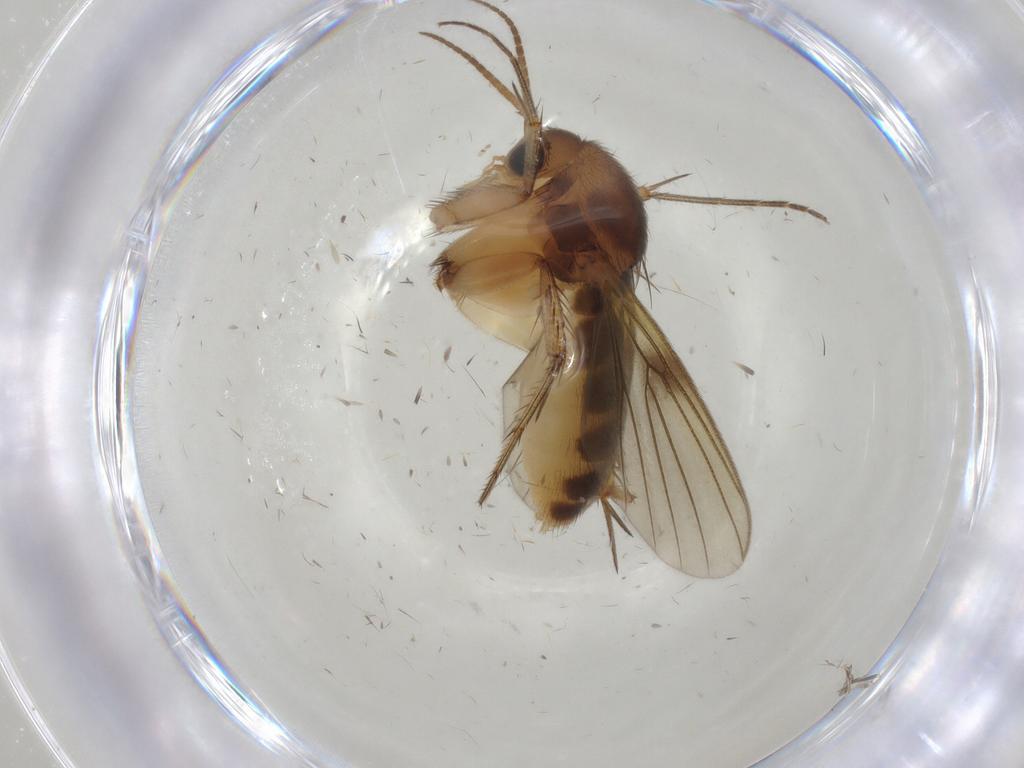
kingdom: Animalia
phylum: Arthropoda
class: Insecta
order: Diptera
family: Mycetophilidae
